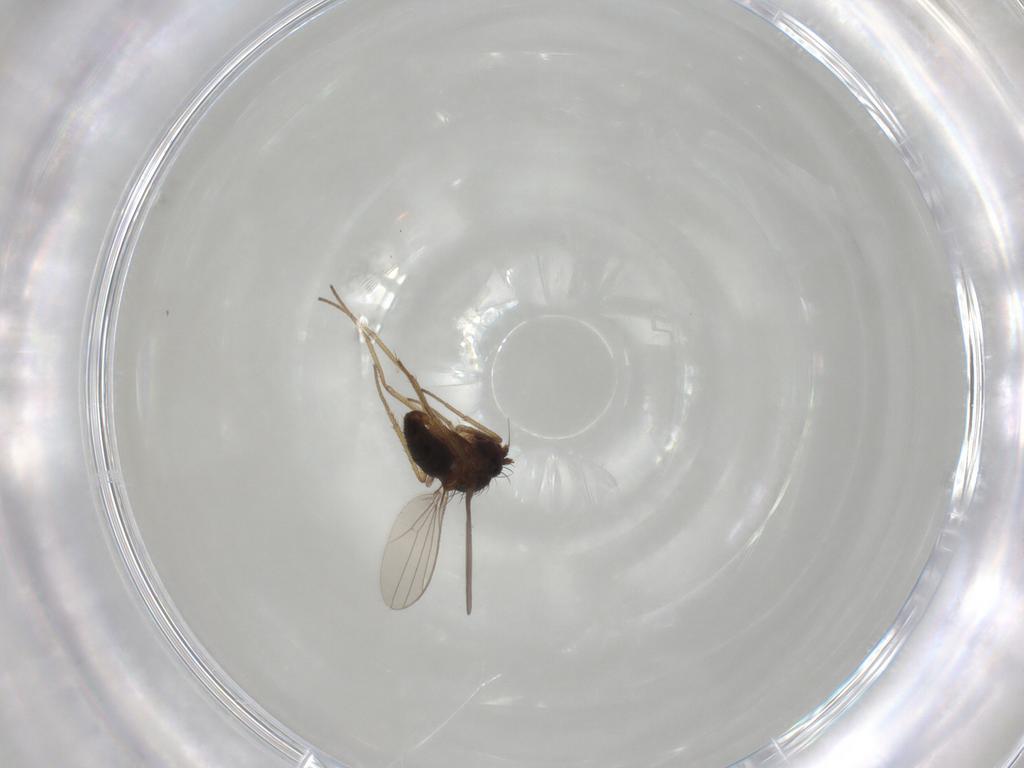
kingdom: Animalia
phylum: Arthropoda
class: Insecta
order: Diptera
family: Dolichopodidae
